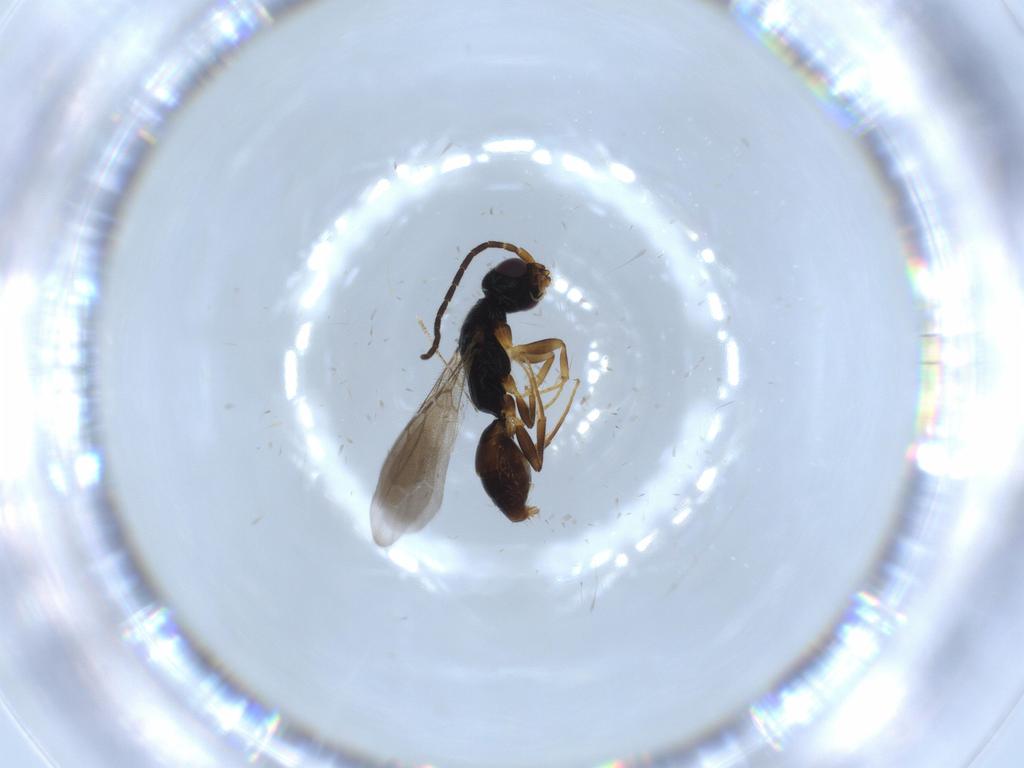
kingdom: Animalia
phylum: Arthropoda
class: Insecta
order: Hymenoptera
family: Bethylidae
